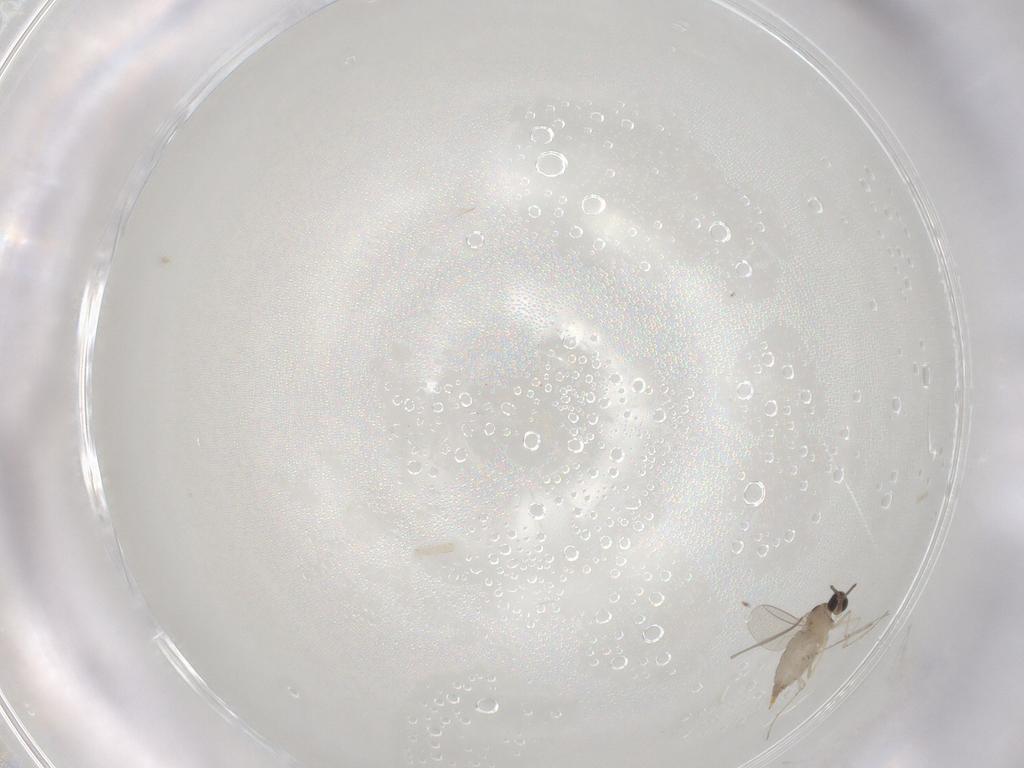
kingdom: Animalia
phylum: Arthropoda
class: Insecta
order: Diptera
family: Cecidomyiidae
